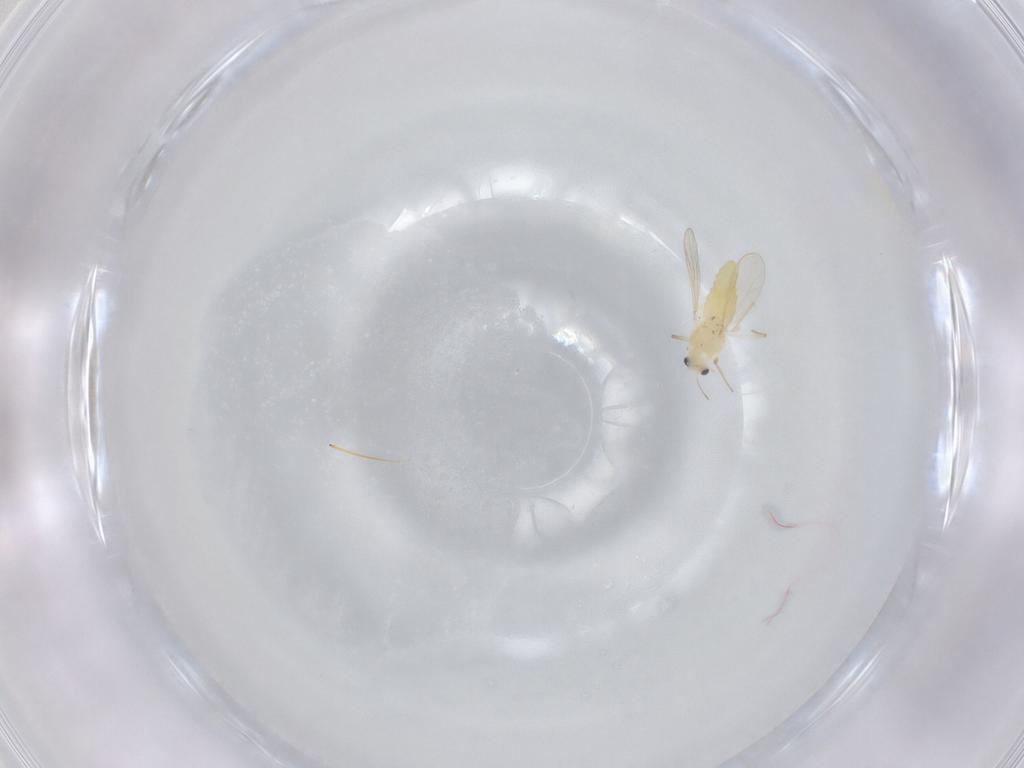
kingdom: Animalia
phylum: Arthropoda
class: Insecta
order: Diptera
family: Chironomidae
